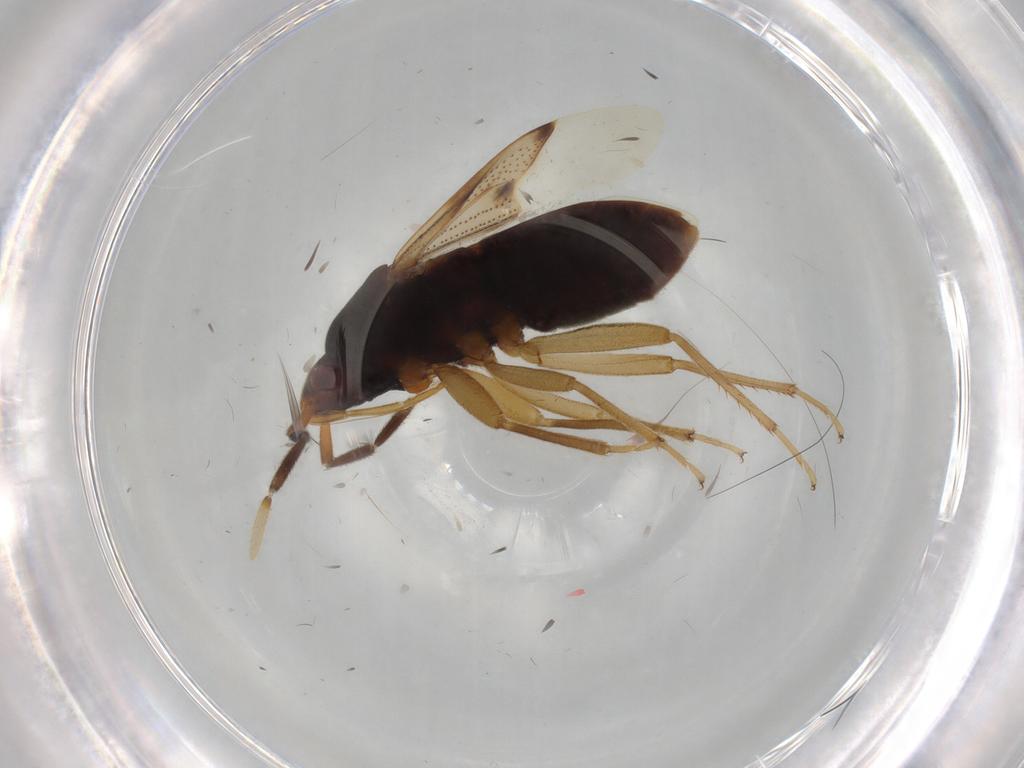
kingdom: Animalia
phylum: Arthropoda
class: Insecta
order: Hemiptera
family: Rhyparochromidae
